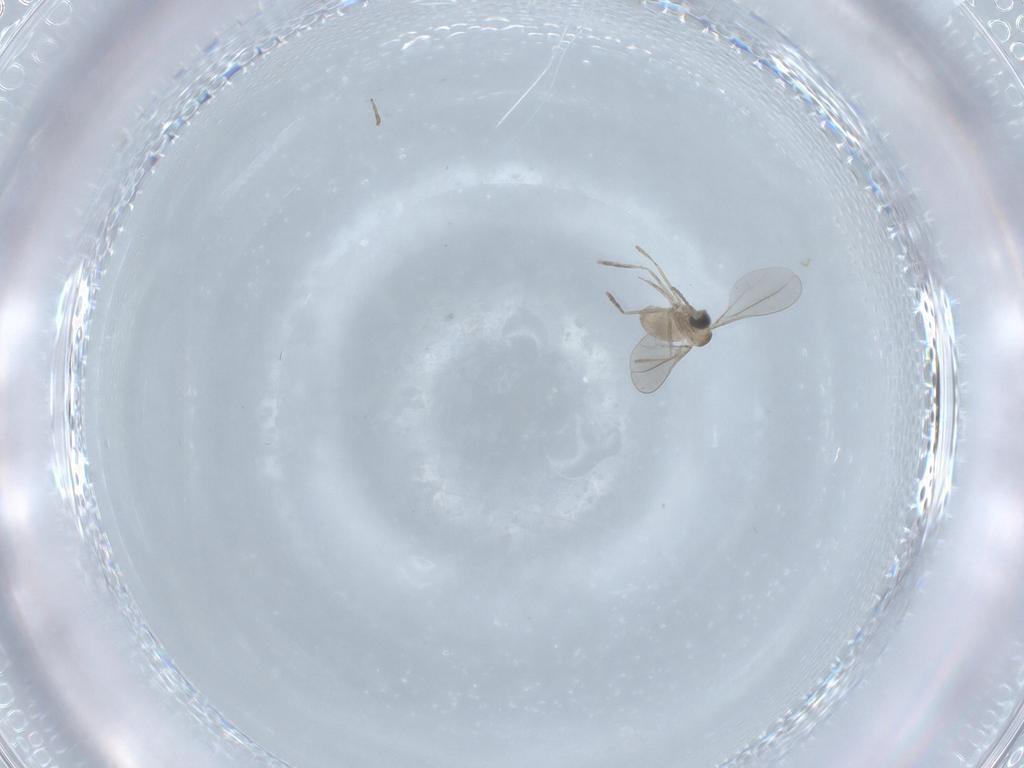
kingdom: Animalia
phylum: Arthropoda
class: Insecta
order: Diptera
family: Cecidomyiidae
